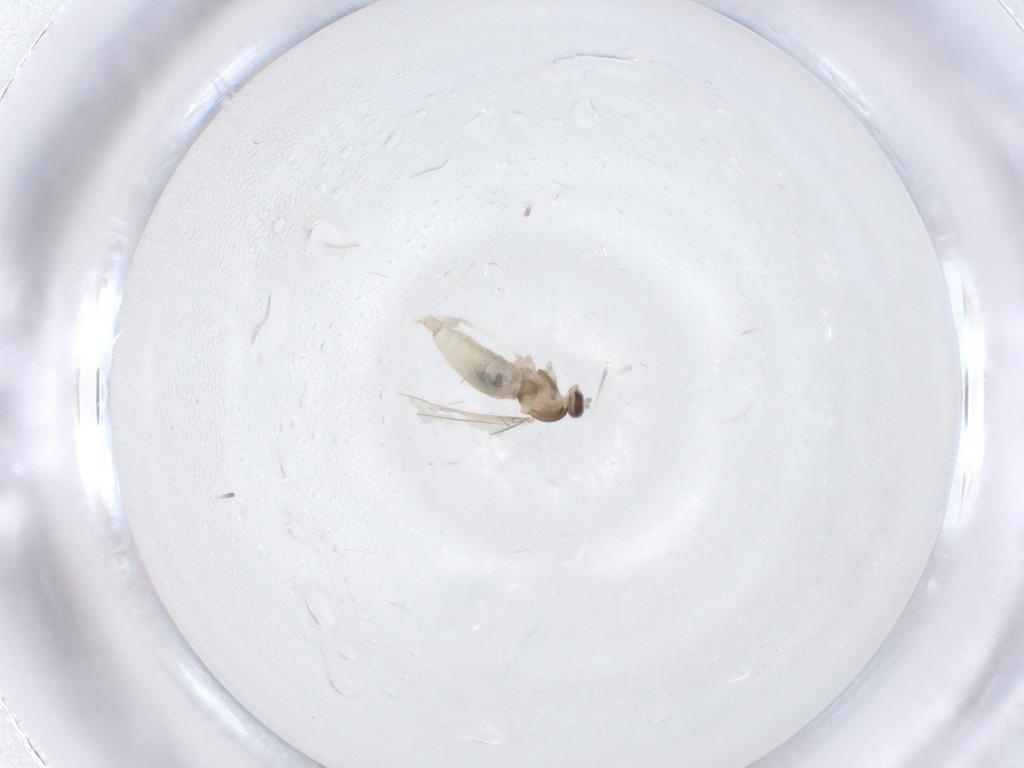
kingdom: Animalia
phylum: Arthropoda
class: Insecta
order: Diptera
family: Cecidomyiidae
